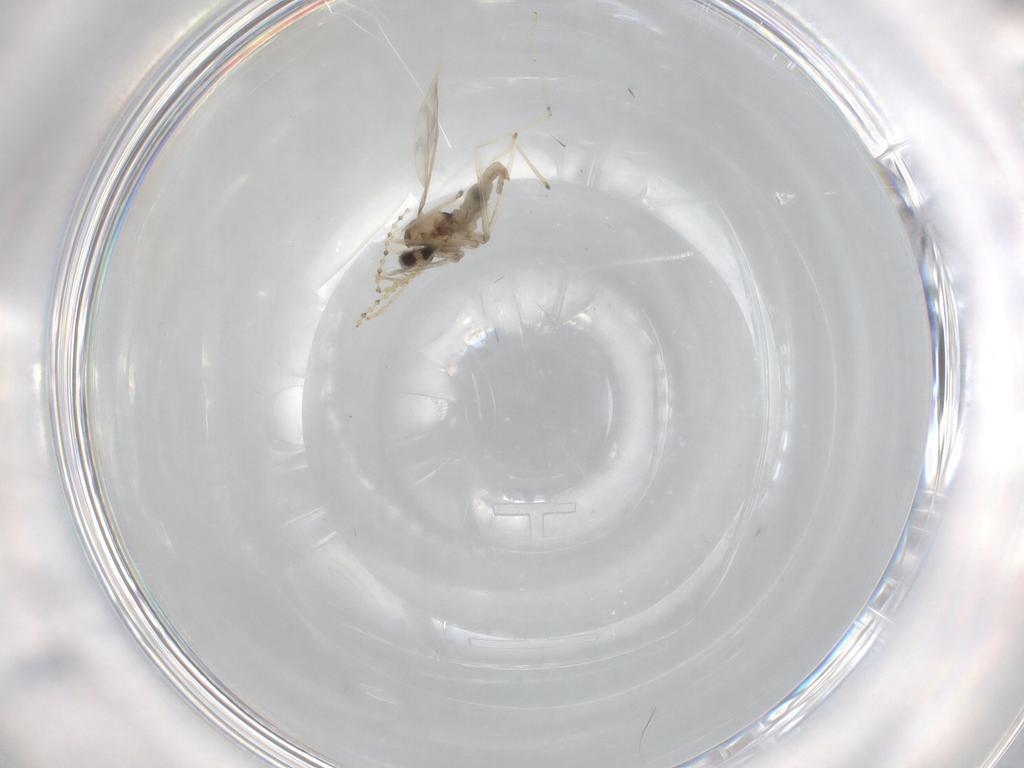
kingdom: Animalia
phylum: Arthropoda
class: Insecta
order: Diptera
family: Cecidomyiidae
